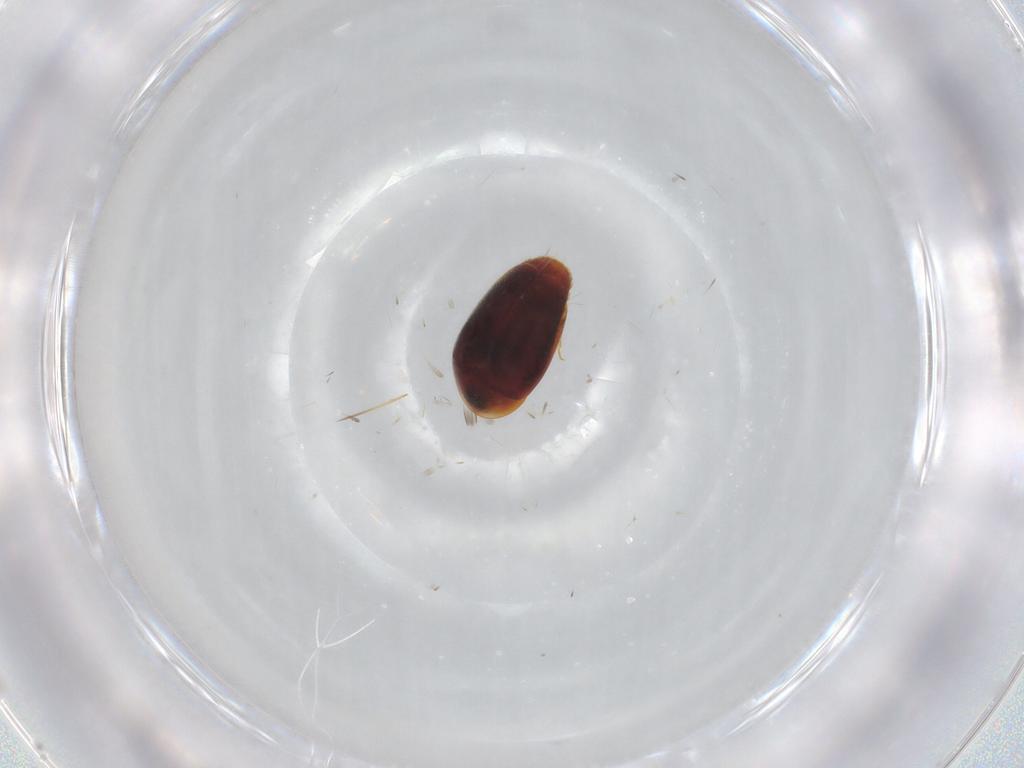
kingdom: Animalia
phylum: Arthropoda
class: Insecta
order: Coleoptera
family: Corylophidae
